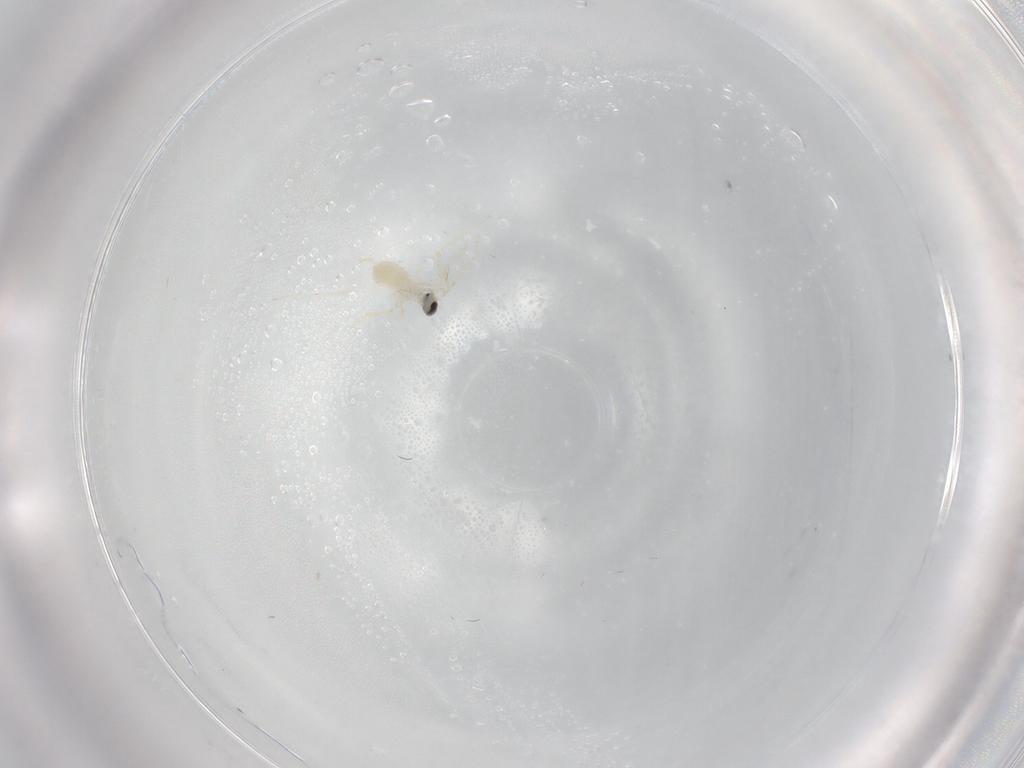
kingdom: Animalia
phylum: Arthropoda
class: Insecta
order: Diptera
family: Cecidomyiidae
